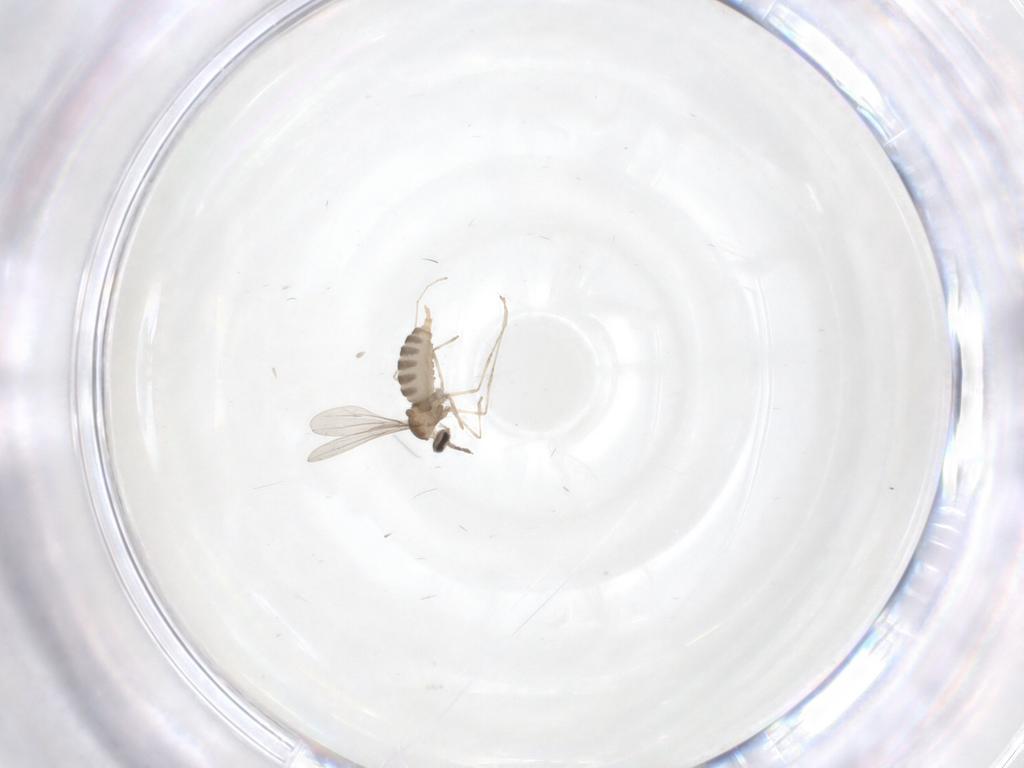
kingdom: Animalia
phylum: Arthropoda
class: Insecta
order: Diptera
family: Cecidomyiidae
